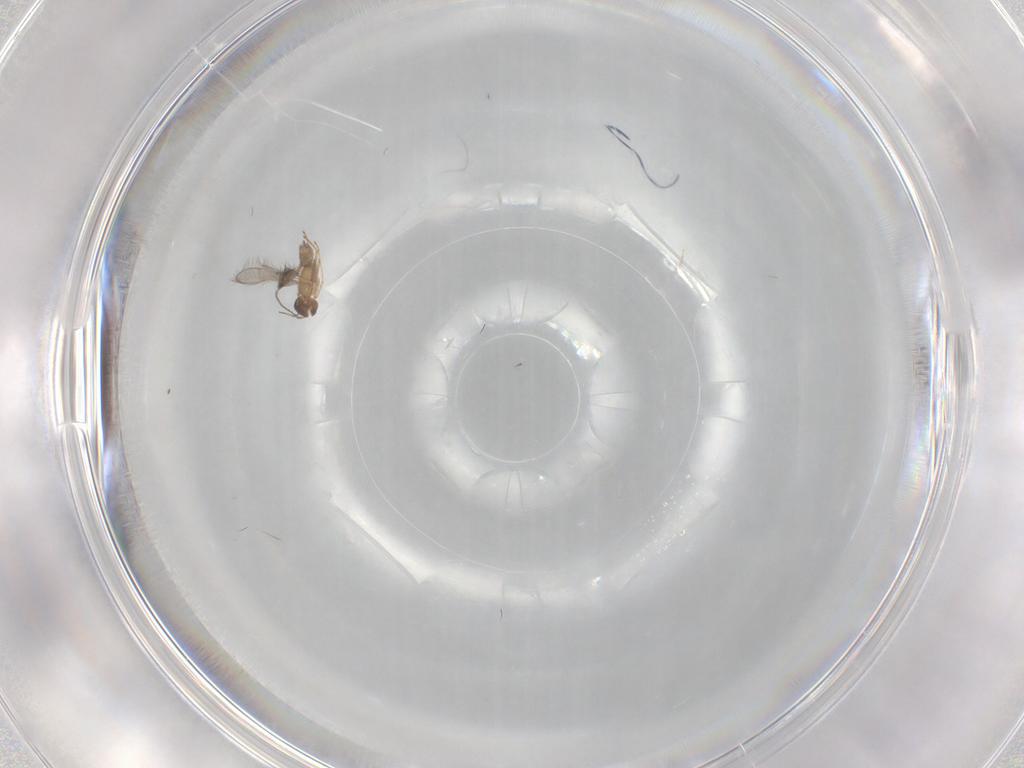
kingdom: Animalia
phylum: Arthropoda
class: Insecta
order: Hymenoptera
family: Mymaridae
